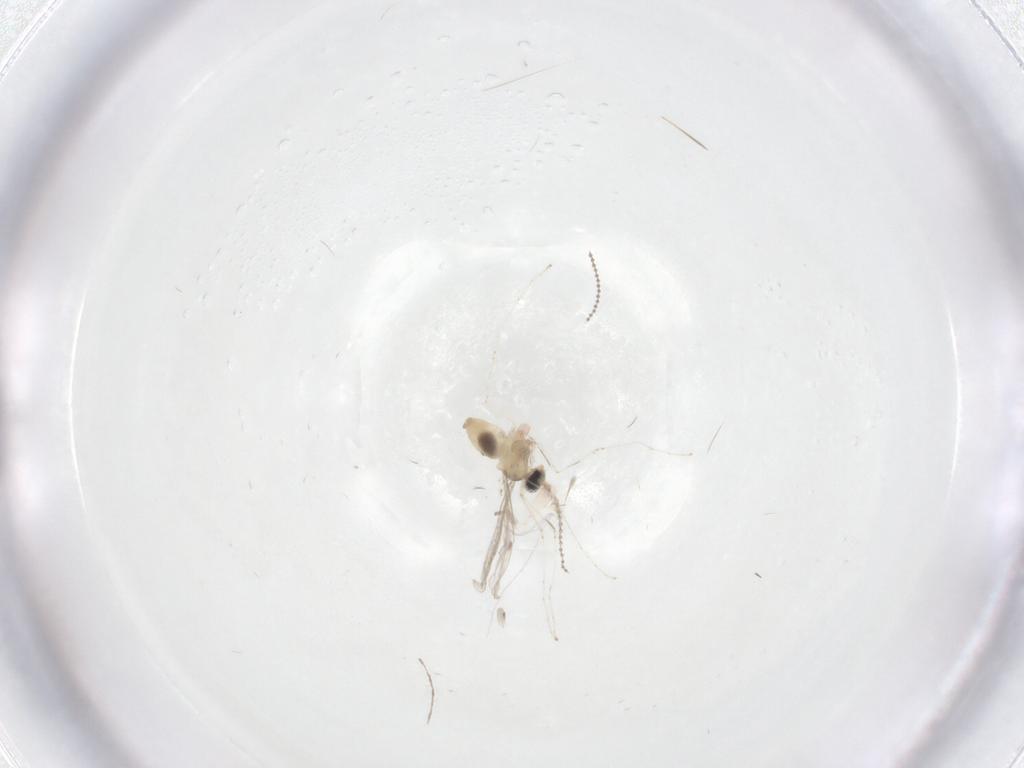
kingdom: Animalia
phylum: Arthropoda
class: Insecta
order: Diptera
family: Cecidomyiidae
